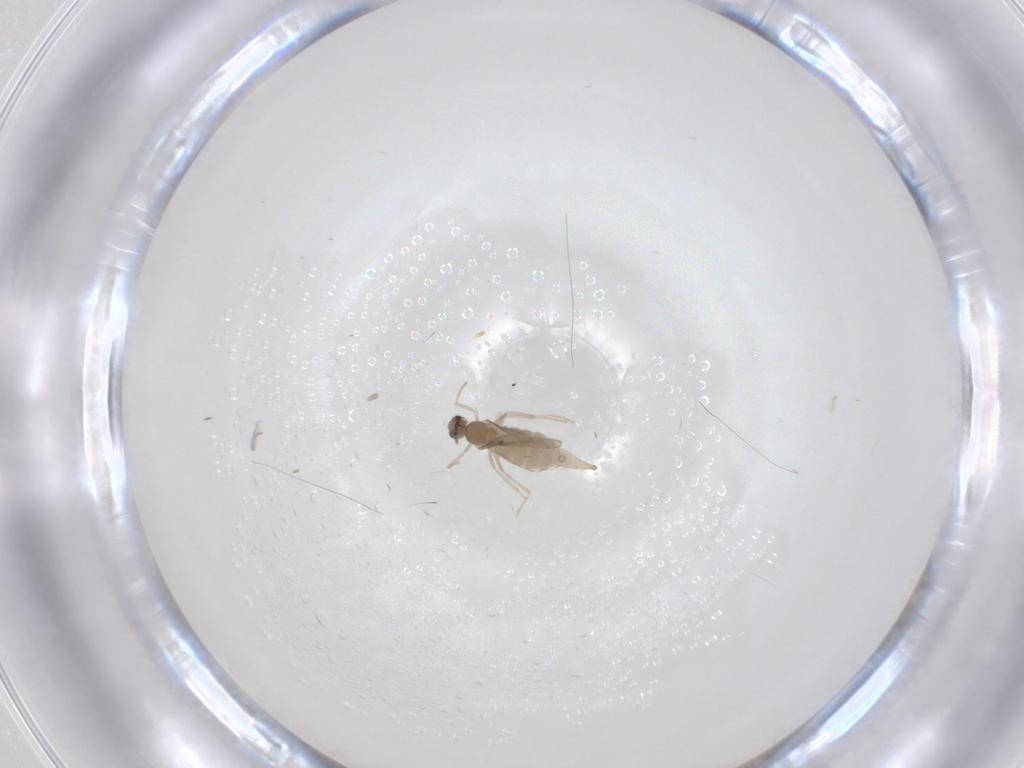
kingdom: Animalia
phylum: Arthropoda
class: Insecta
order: Diptera
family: Cecidomyiidae
